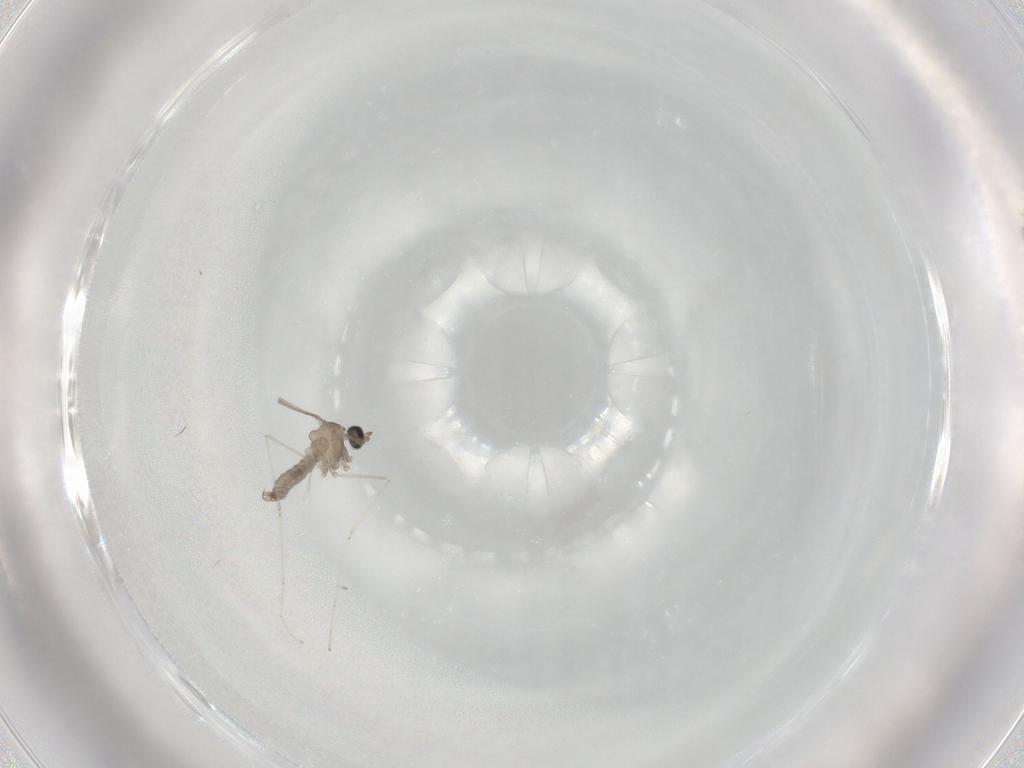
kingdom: Animalia
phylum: Arthropoda
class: Insecta
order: Diptera
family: Cecidomyiidae
